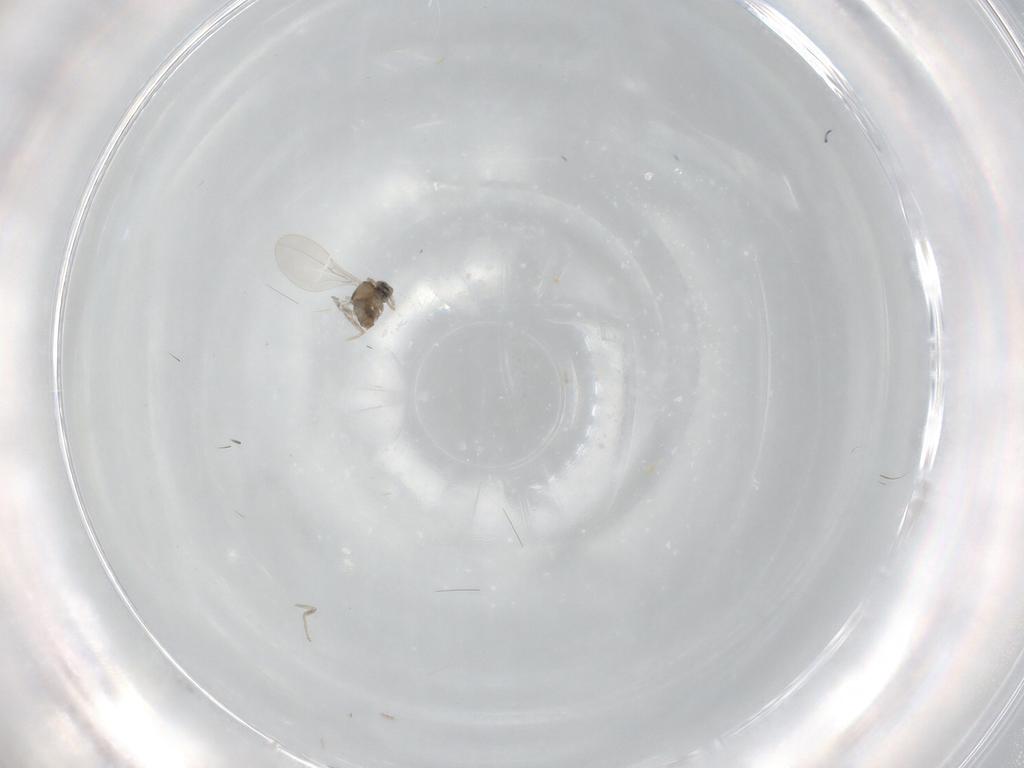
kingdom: Animalia
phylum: Arthropoda
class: Insecta
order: Diptera
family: Cecidomyiidae
